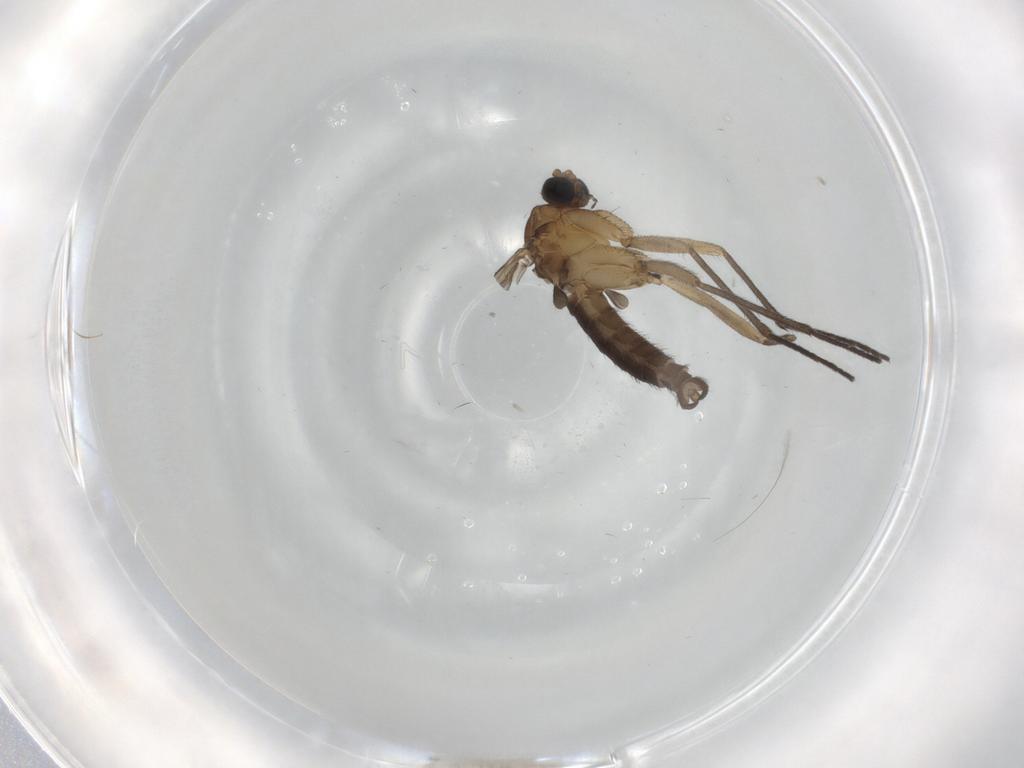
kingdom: Animalia
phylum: Arthropoda
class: Insecta
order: Diptera
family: Sciaridae
